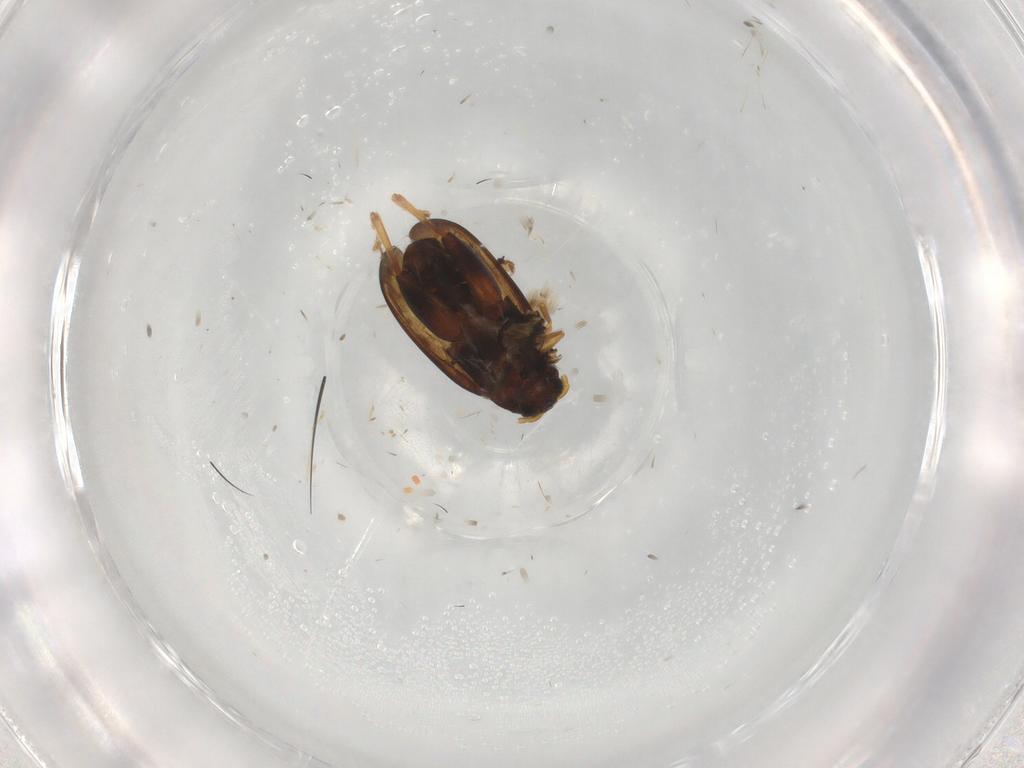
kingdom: Animalia
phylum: Arthropoda
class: Insecta
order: Coleoptera
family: Chrysomelidae
